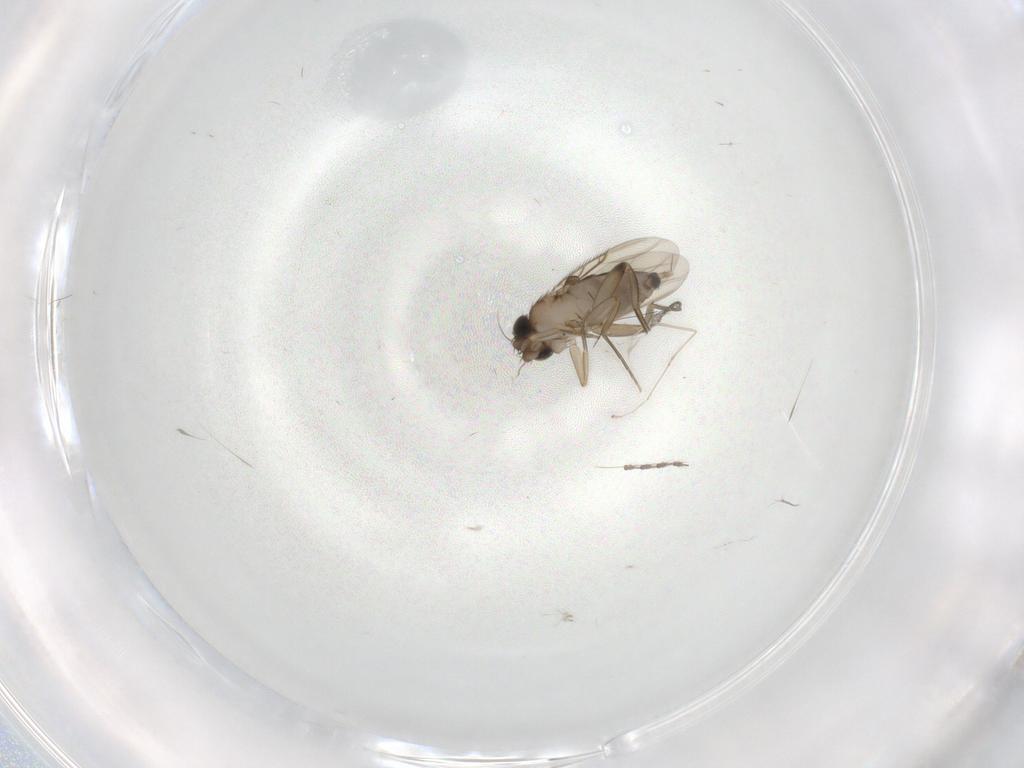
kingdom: Animalia
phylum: Arthropoda
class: Insecta
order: Diptera
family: Phoridae
